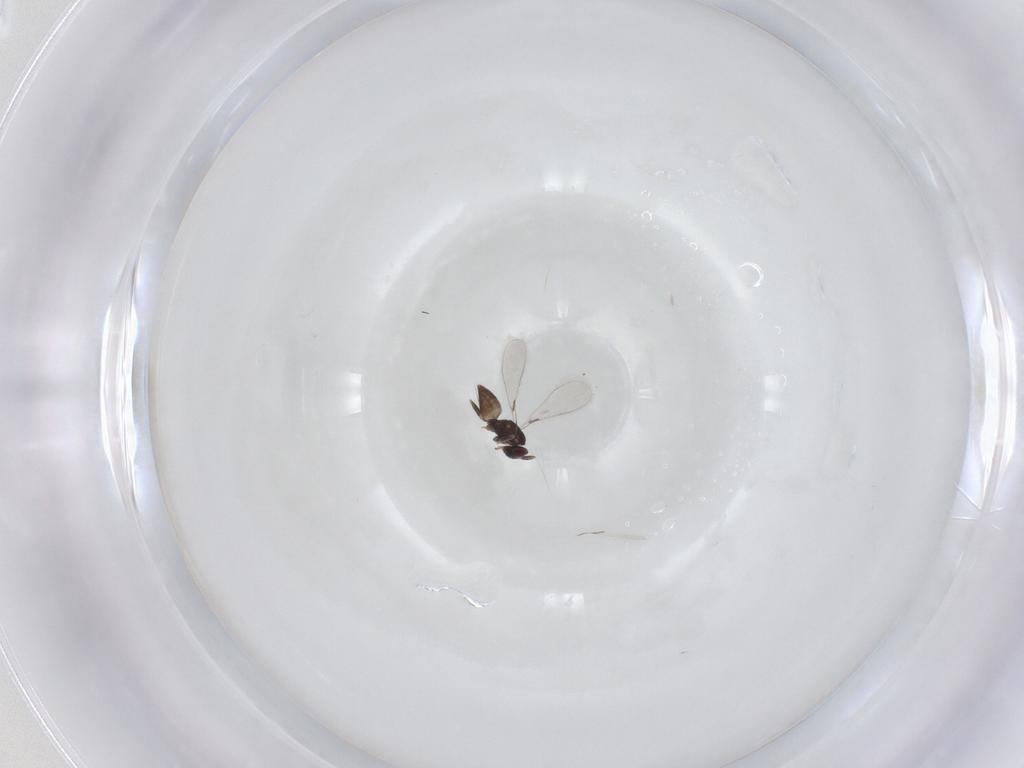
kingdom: Animalia
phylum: Arthropoda
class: Insecta
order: Hymenoptera
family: Mymaridae
